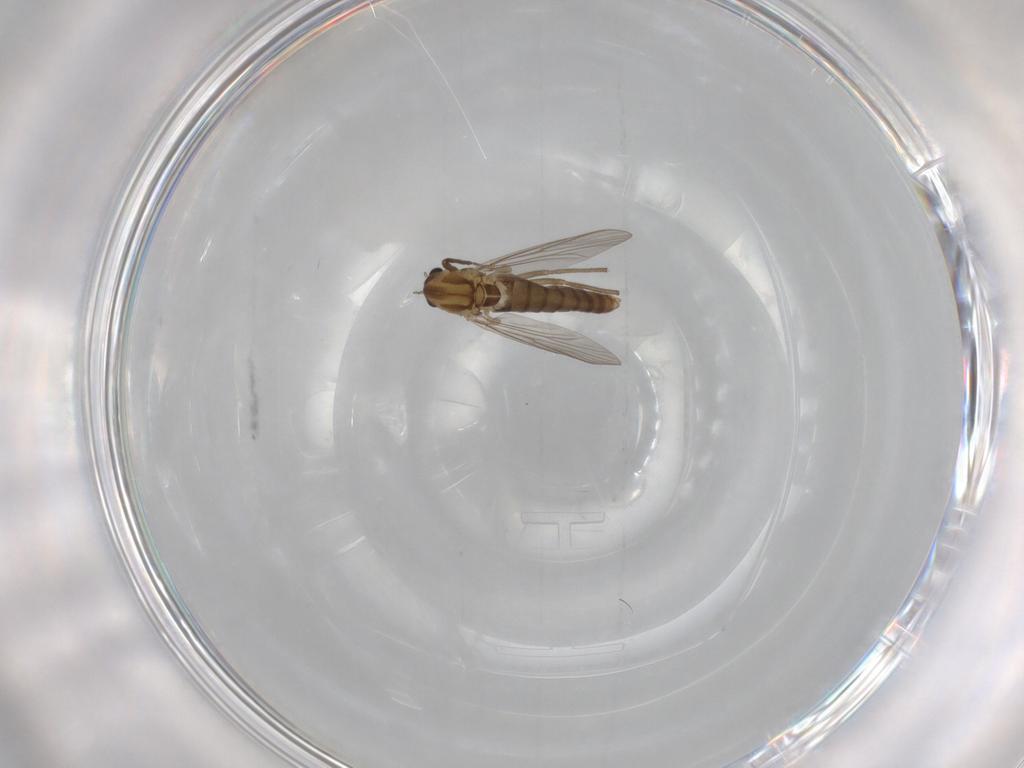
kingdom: Animalia
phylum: Arthropoda
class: Insecta
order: Diptera
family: Chironomidae
